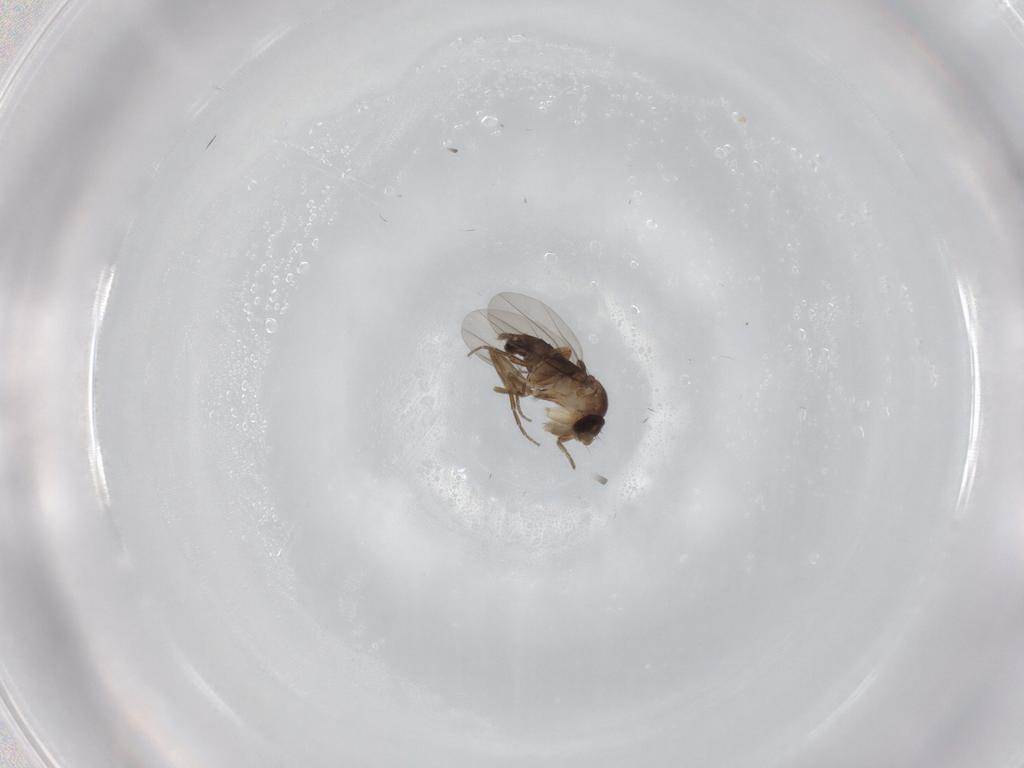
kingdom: Animalia
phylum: Arthropoda
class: Insecta
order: Diptera
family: Phoridae
